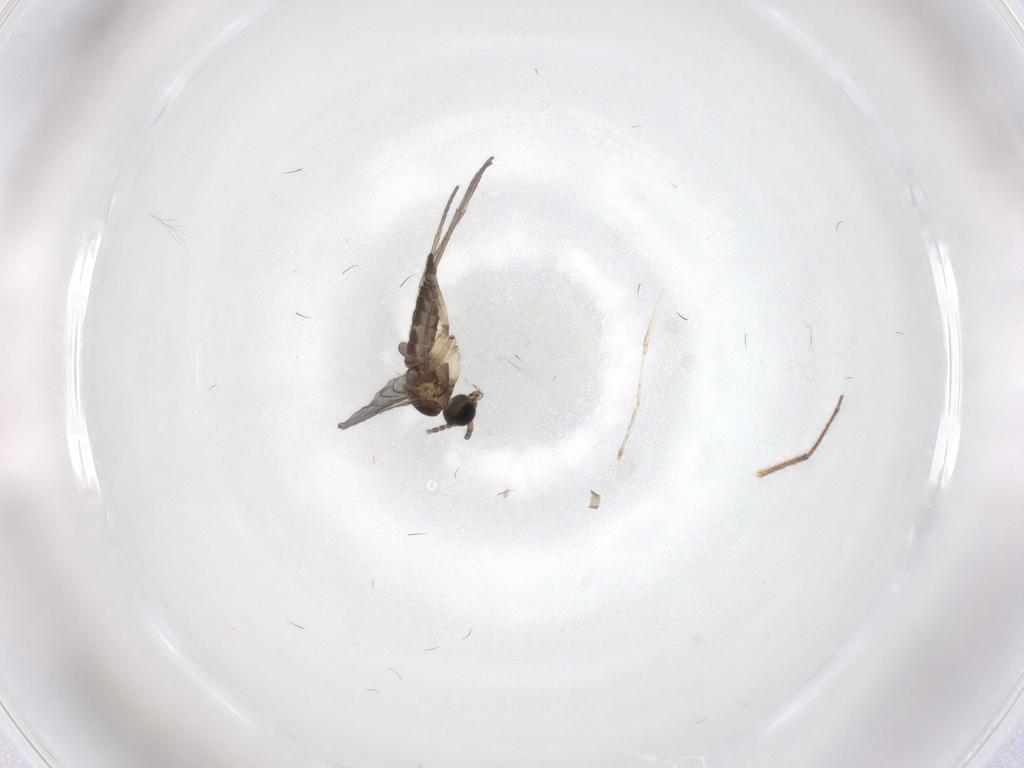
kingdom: Animalia
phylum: Arthropoda
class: Insecta
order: Diptera
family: Sciaridae
